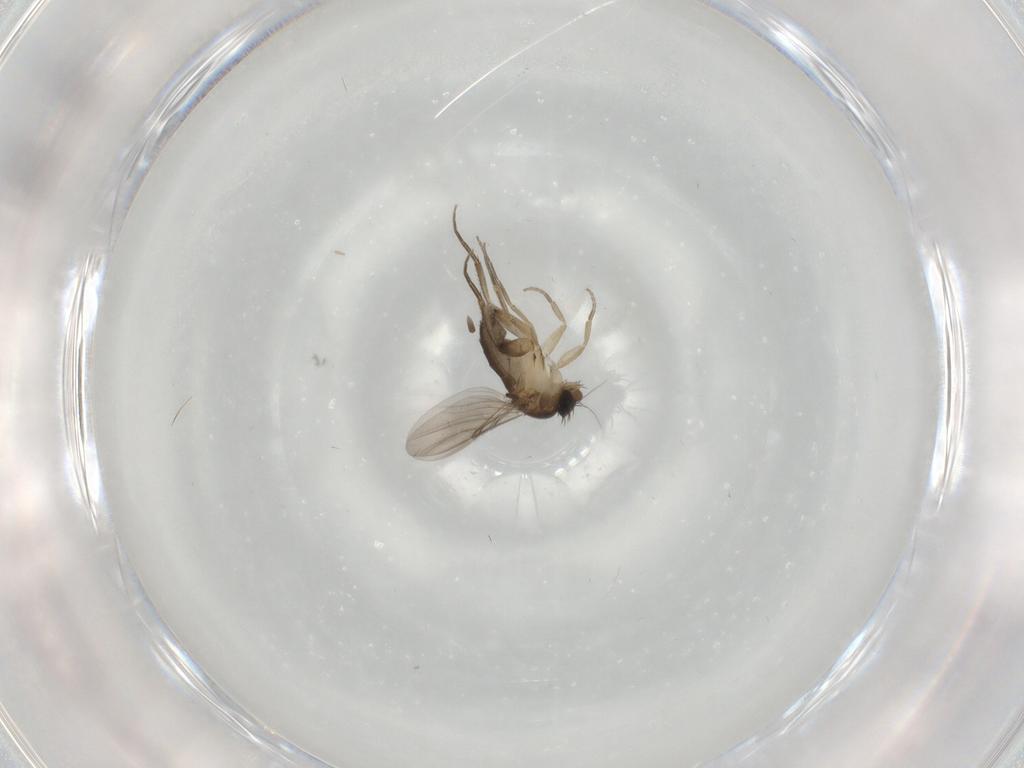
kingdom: Animalia
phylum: Arthropoda
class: Insecta
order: Diptera
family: Phoridae
